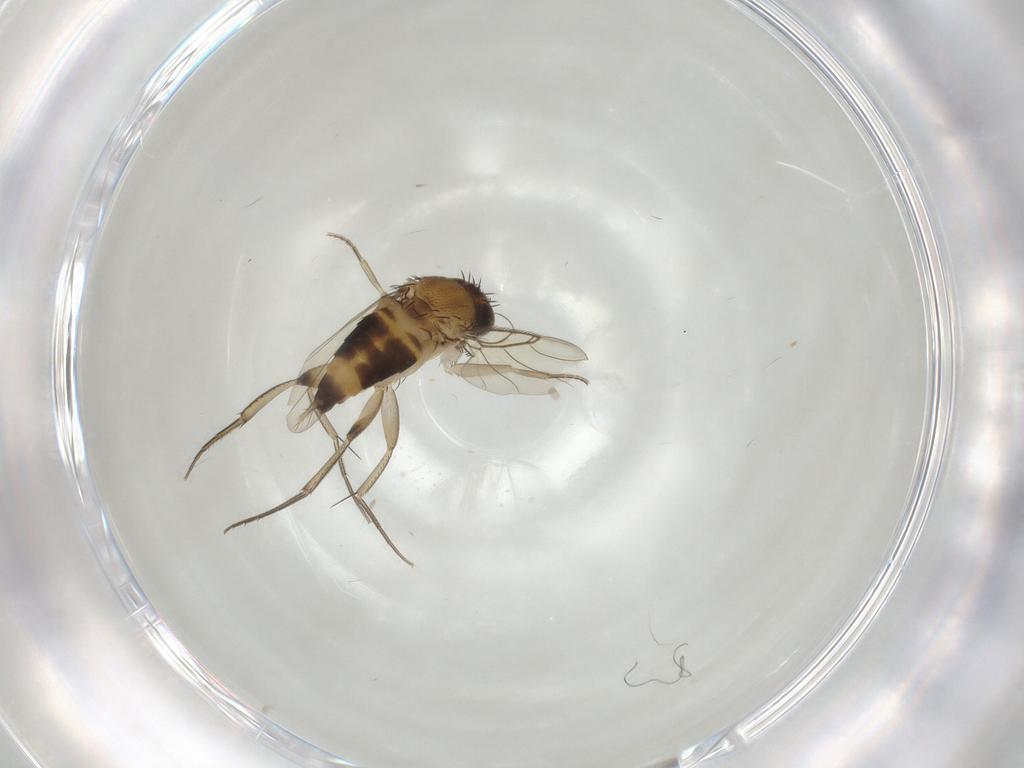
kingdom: Animalia
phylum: Arthropoda
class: Insecta
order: Diptera
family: Phoridae
